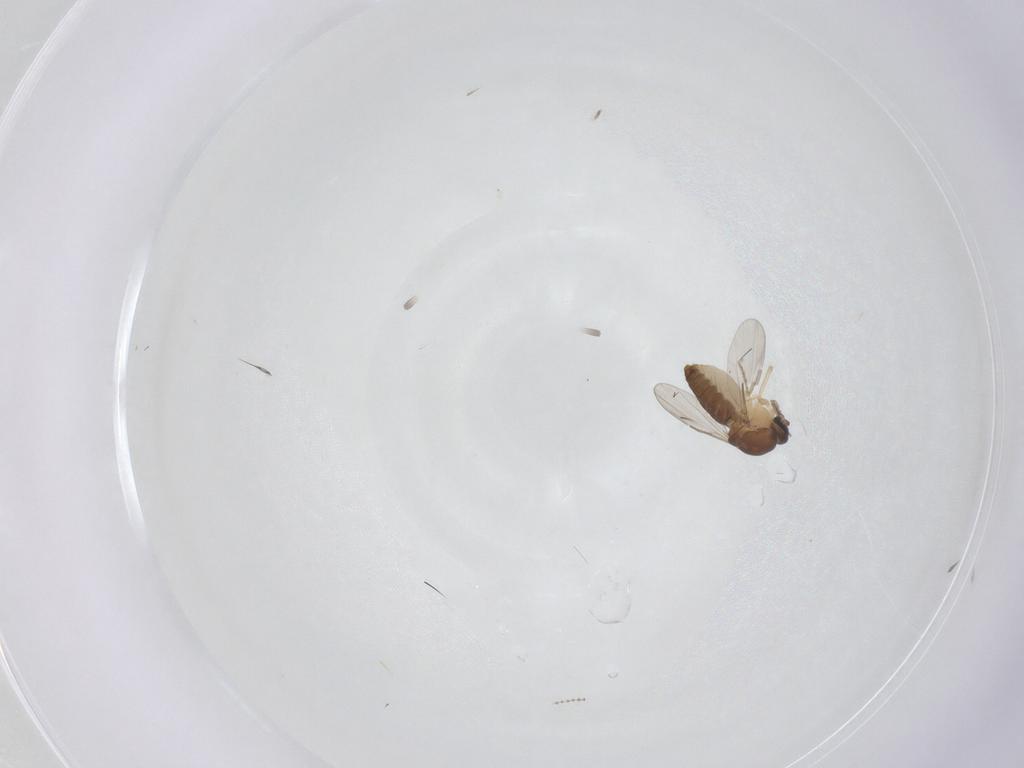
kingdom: Animalia
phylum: Arthropoda
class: Insecta
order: Diptera
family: Ceratopogonidae
